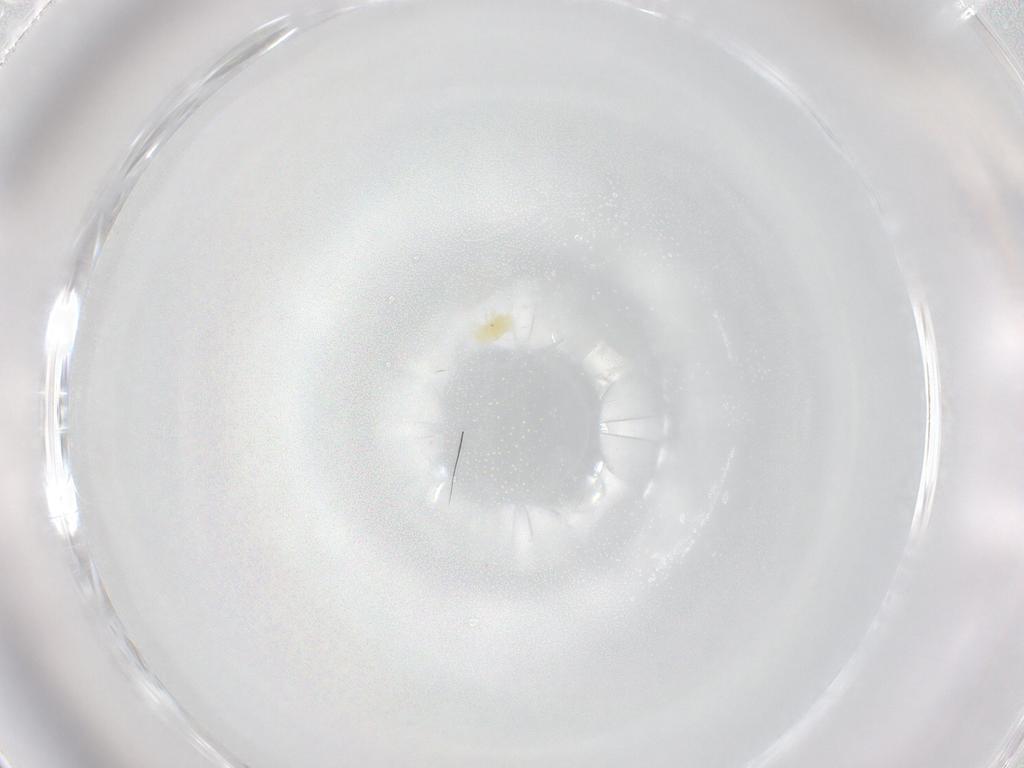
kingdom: Animalia
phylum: Arthropoda
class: Arachnida
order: Trombidiformes
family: Eupodidae
